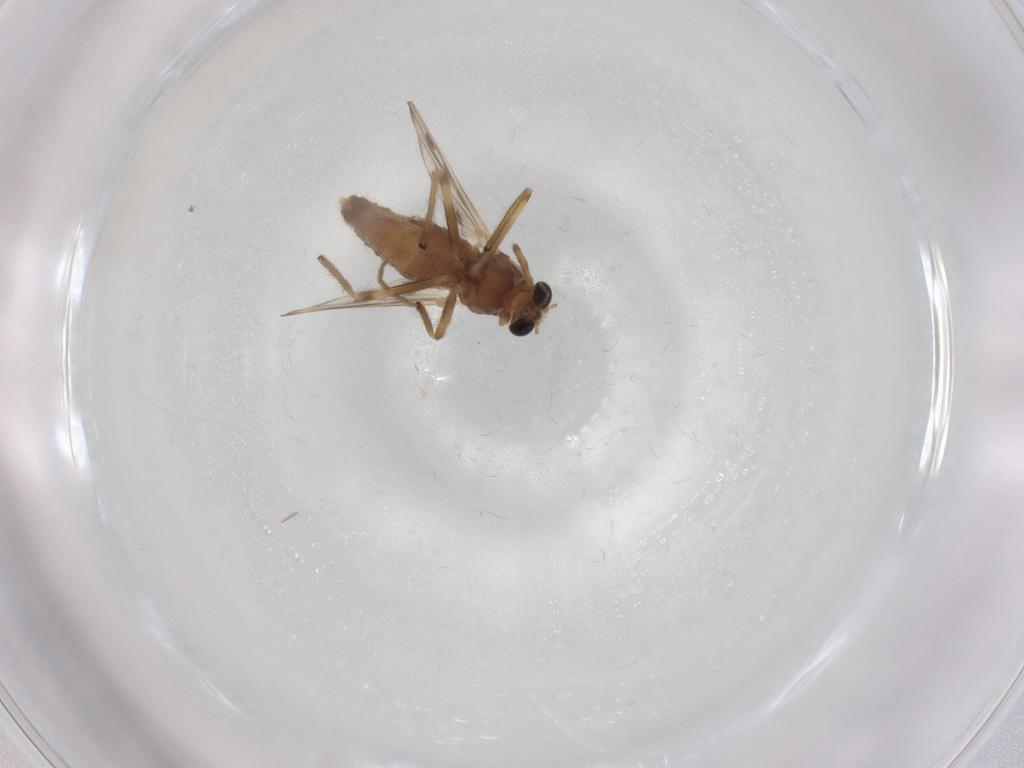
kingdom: Animalia
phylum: Arthropoda
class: Insecta
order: Diptera
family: Chironomidae
